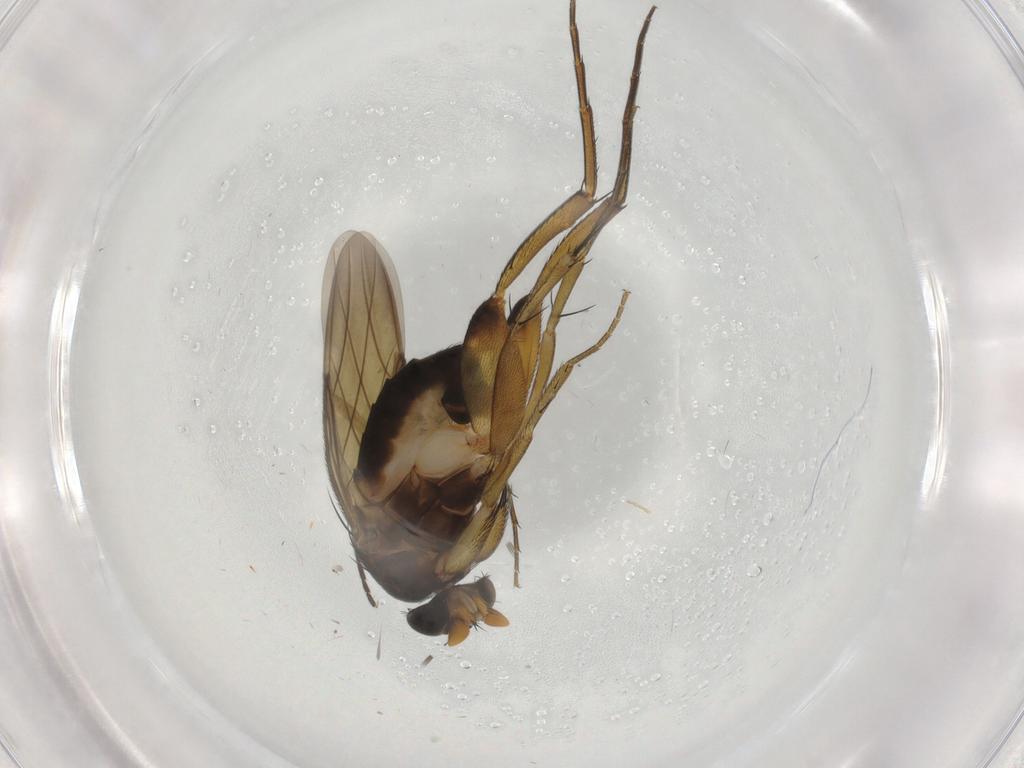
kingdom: Animalia
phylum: Arthropoda
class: Insecta
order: Diptera
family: Phoridae
